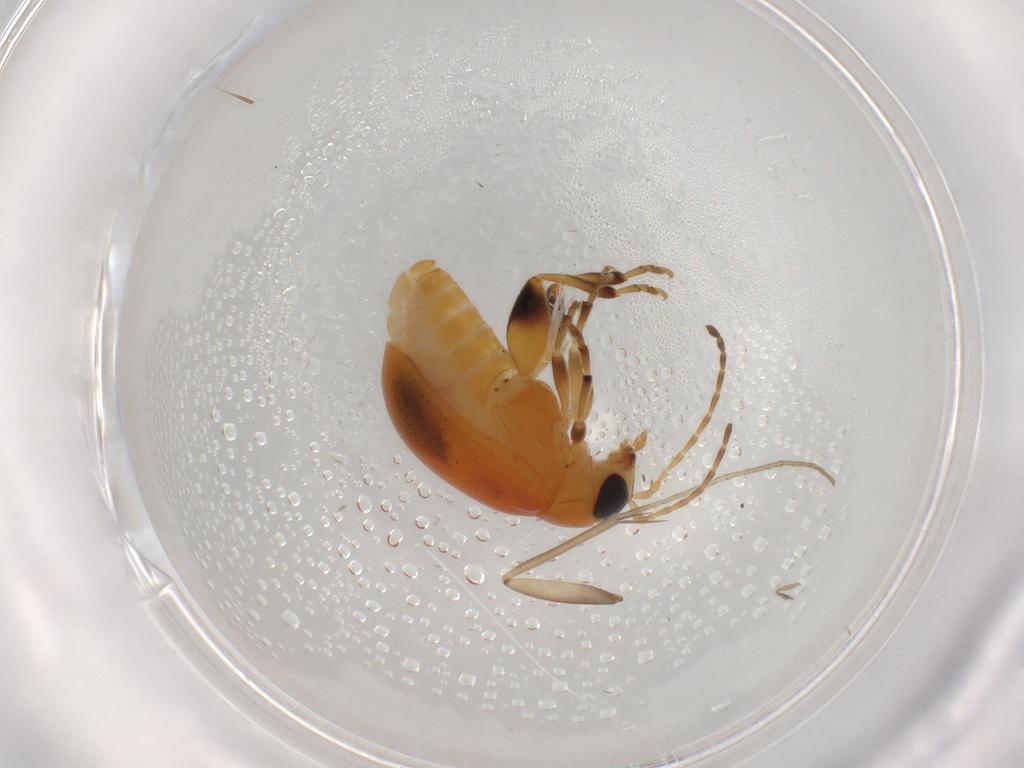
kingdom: Animalia
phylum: Arthropoda
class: Insecta
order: Coleoptera
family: Chrysomelidae
